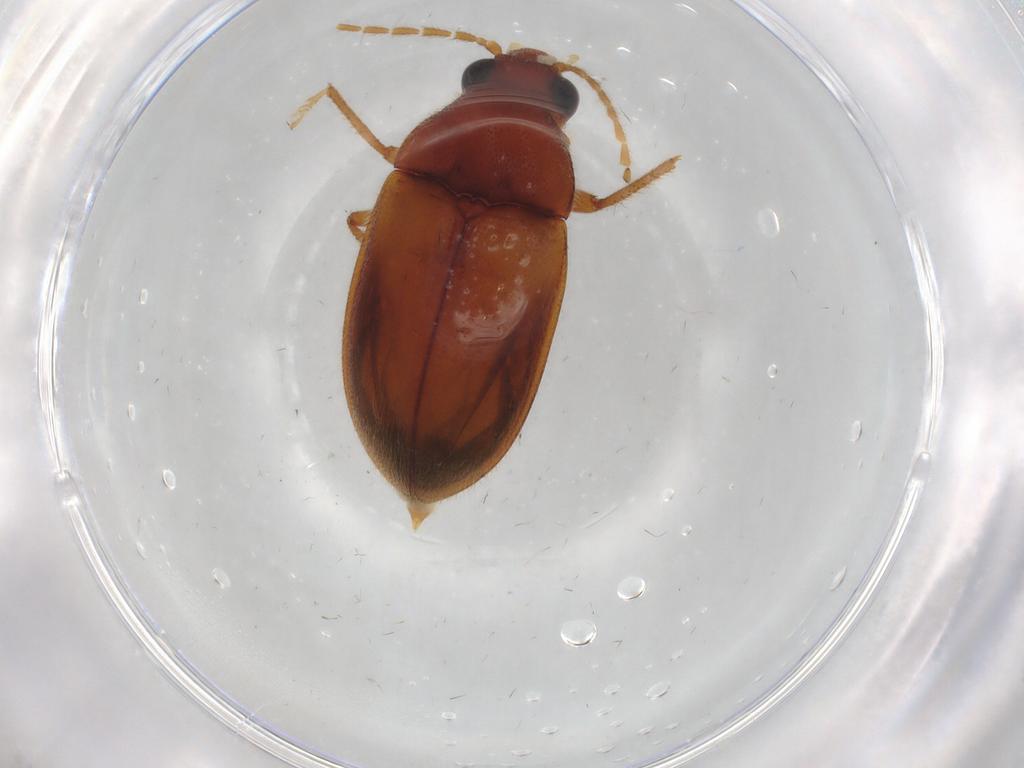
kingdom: Animalia
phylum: Arthropoda
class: Insecta
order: Coleoptera
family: Ptilodactylidae
